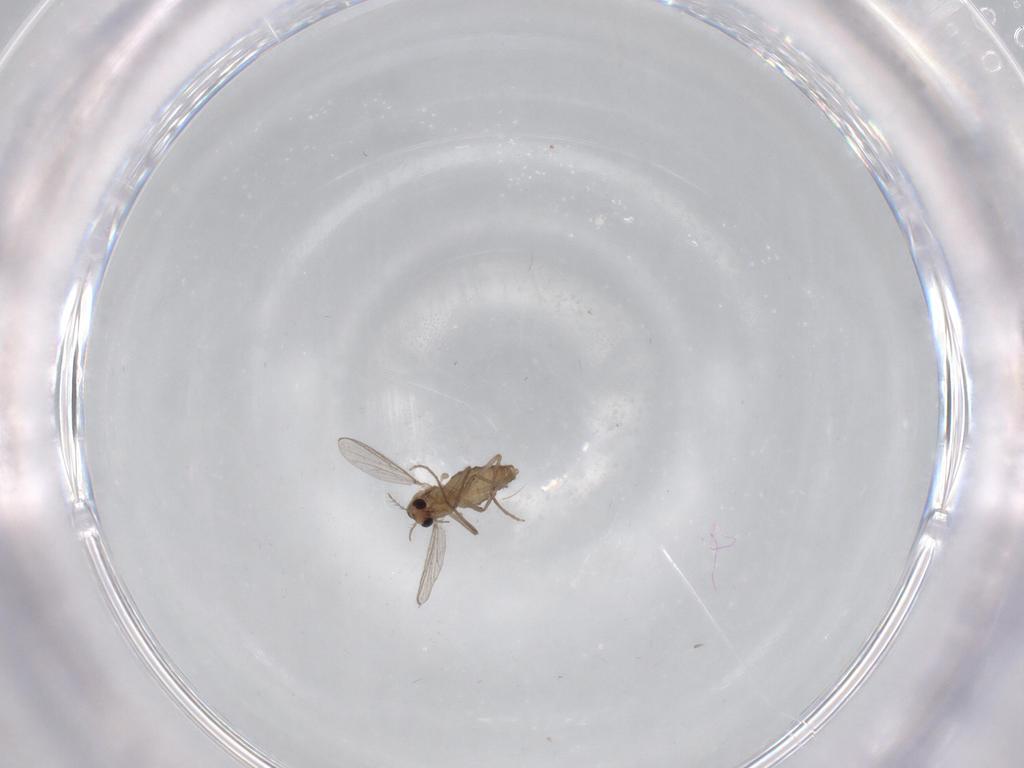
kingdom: Animalia
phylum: Arthropoda
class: Insecta
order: Diptera
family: Chironomidae
